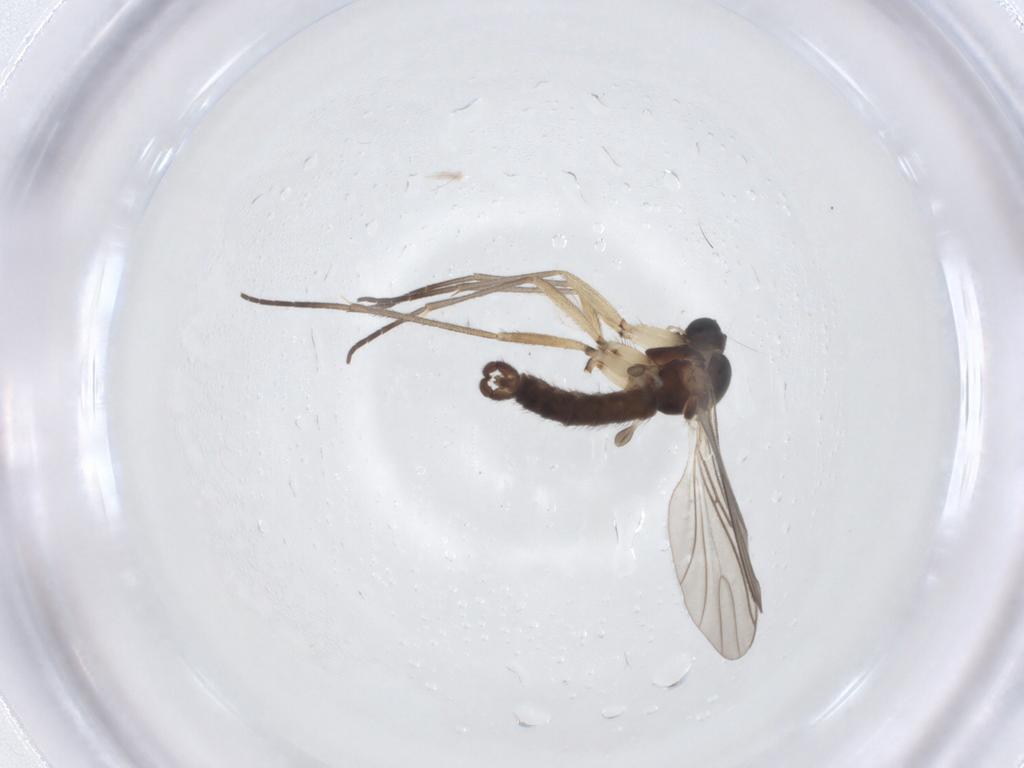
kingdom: Animalia
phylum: Arthropoda
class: Insecta
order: Diptera
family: Sciaridae
